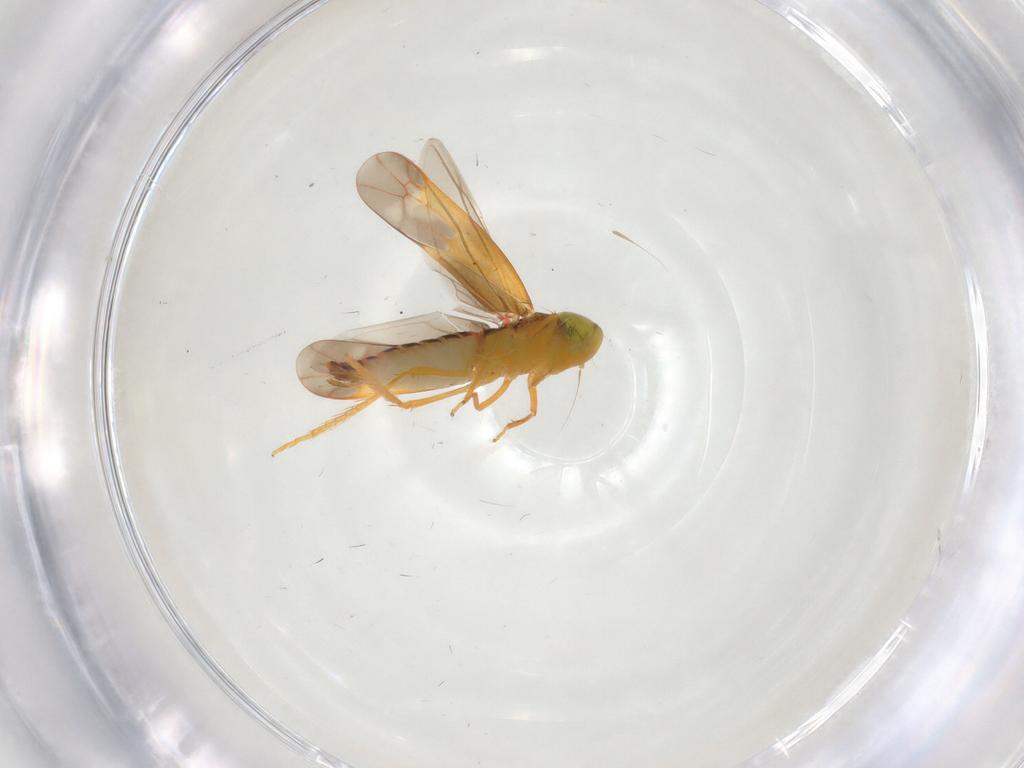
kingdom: Animalia
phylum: Arthropoda
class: Insecta
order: Hemiptera
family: Cicadellidae
